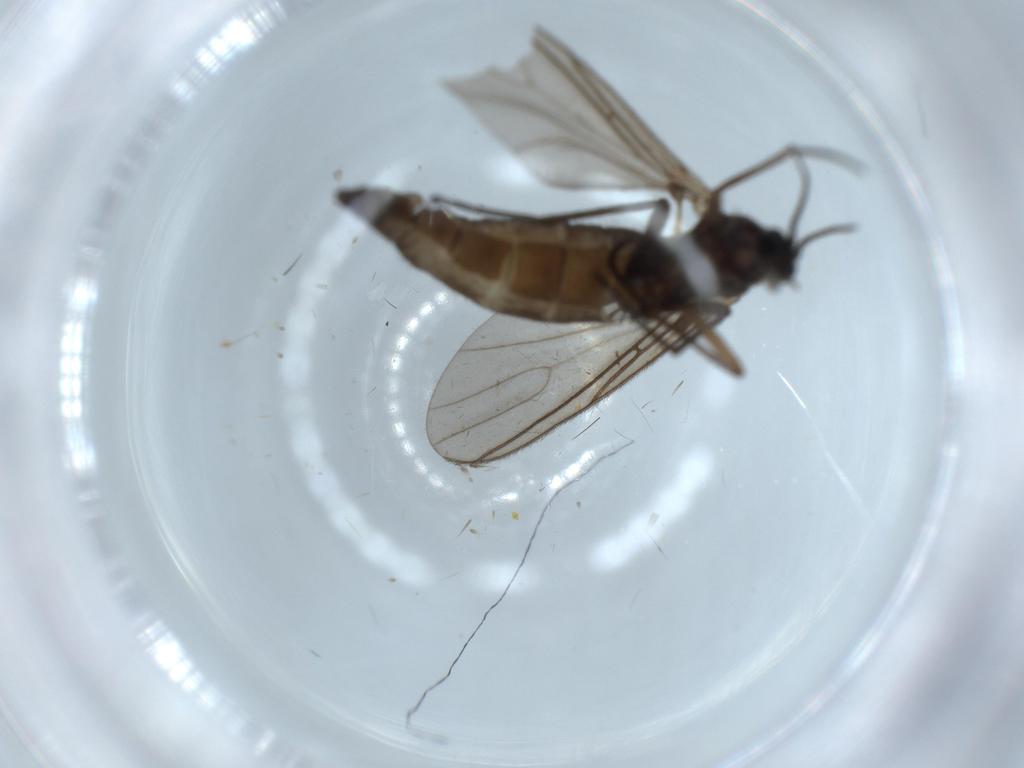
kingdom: Animalia
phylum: Arthropoda
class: Insecta
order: Diptera
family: Sciaridae
